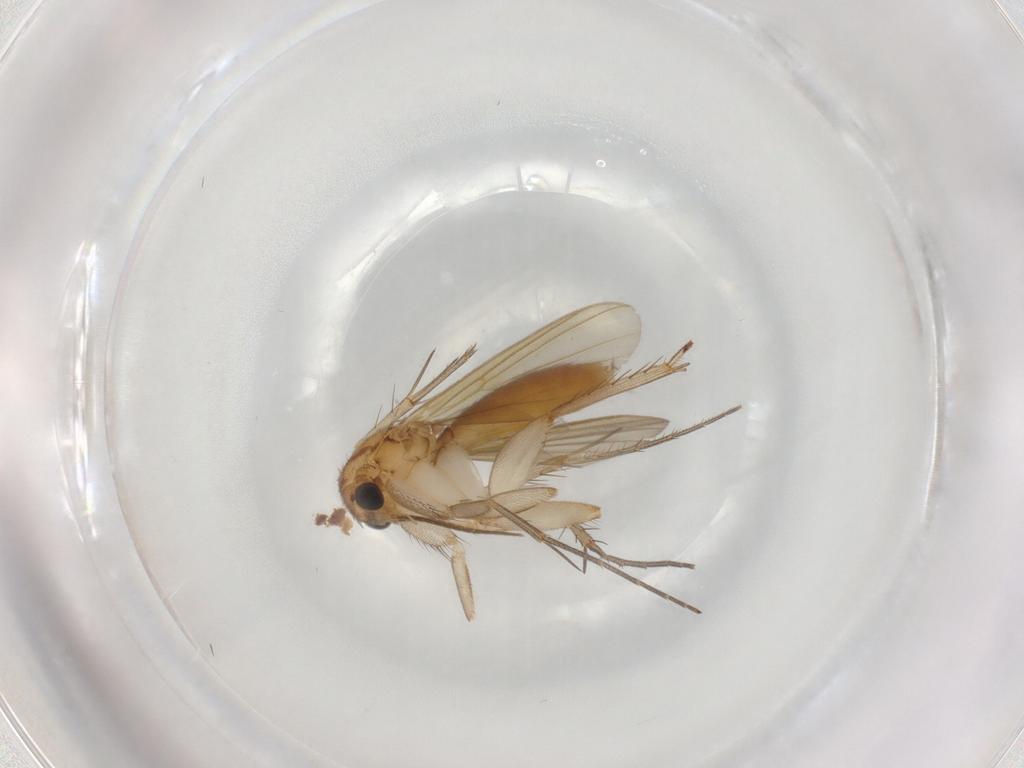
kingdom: Animalia
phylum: Arthropoda
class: Insecta
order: Diptera
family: Mycetophilidae
